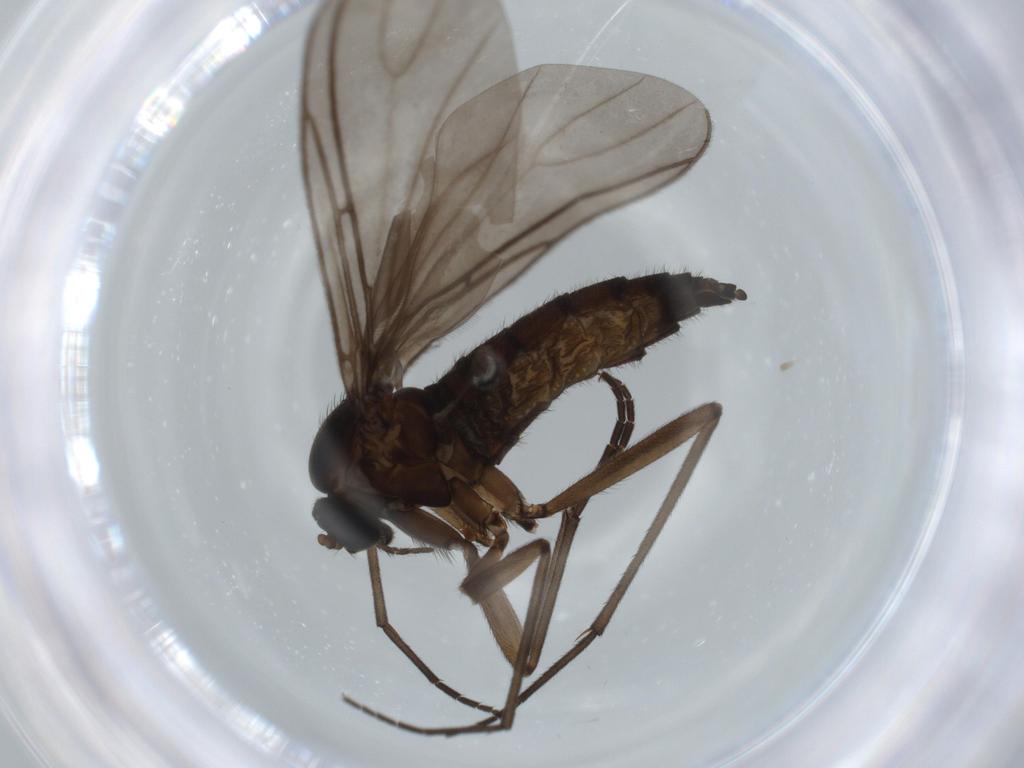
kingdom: Animalia
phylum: Arthropoda
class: Insecta
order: Diptera
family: Sciaridae
